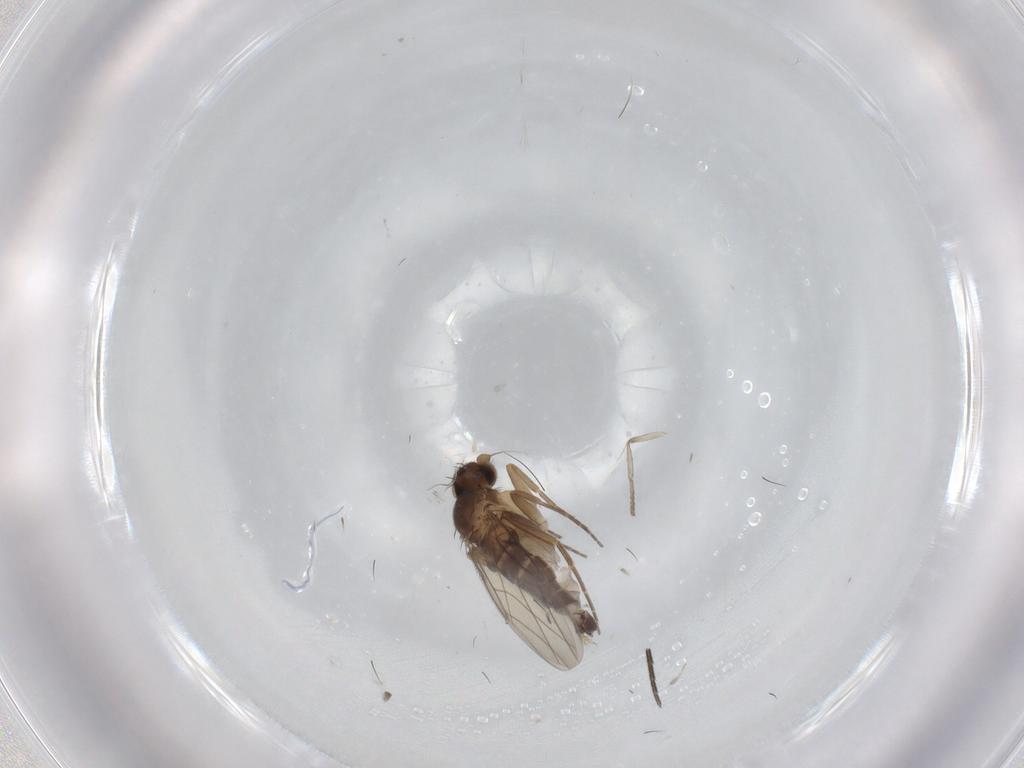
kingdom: Animalia
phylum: Arthropoda
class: Insecta
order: Diptera
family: Phoridae
